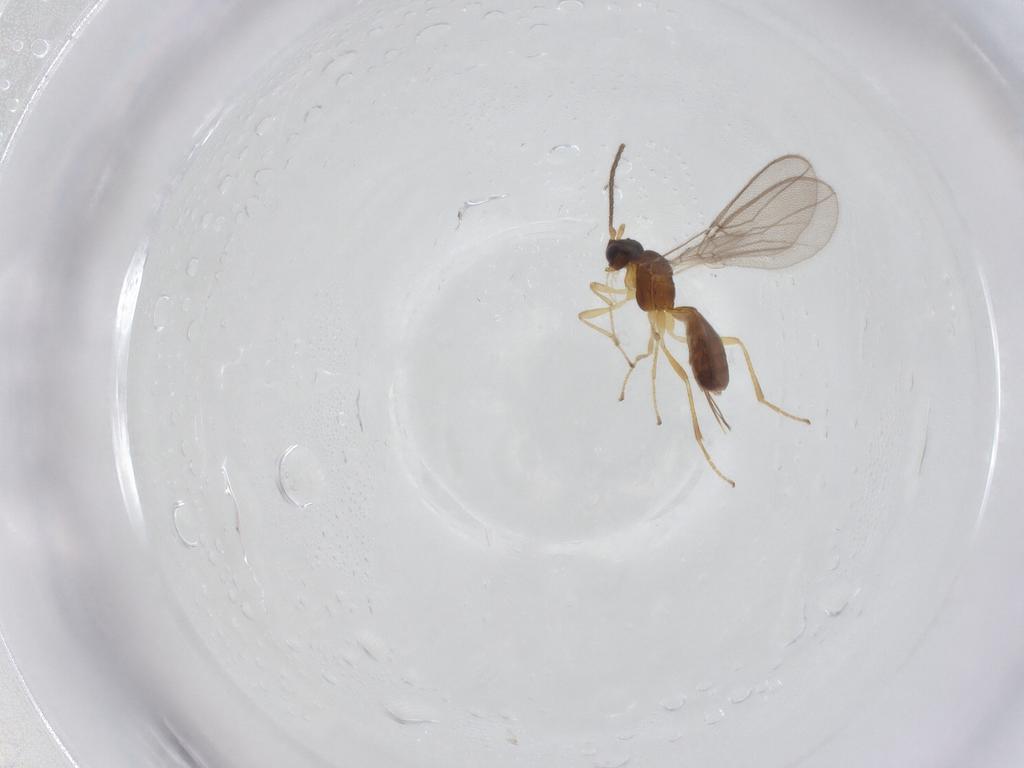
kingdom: Animalia
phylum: Arthropoda
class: Insecta
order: Hymenoptera
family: Braconidae
